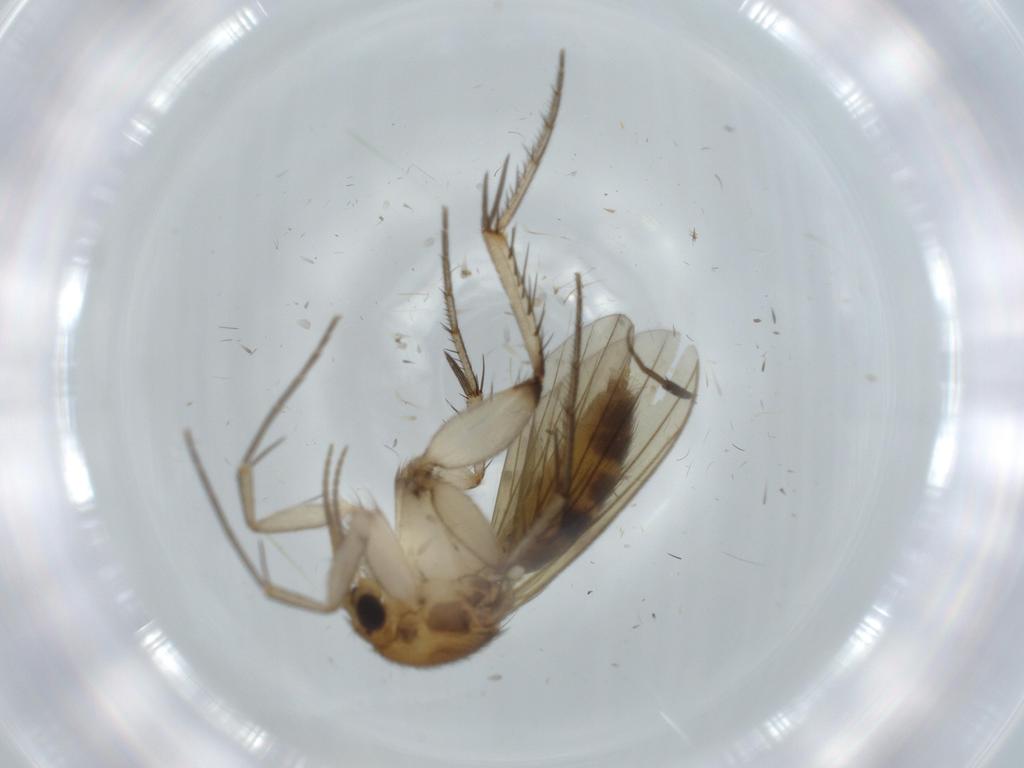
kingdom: Animalia
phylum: Arthropoda
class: Insecta
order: Diptera
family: Mycetophilidae
